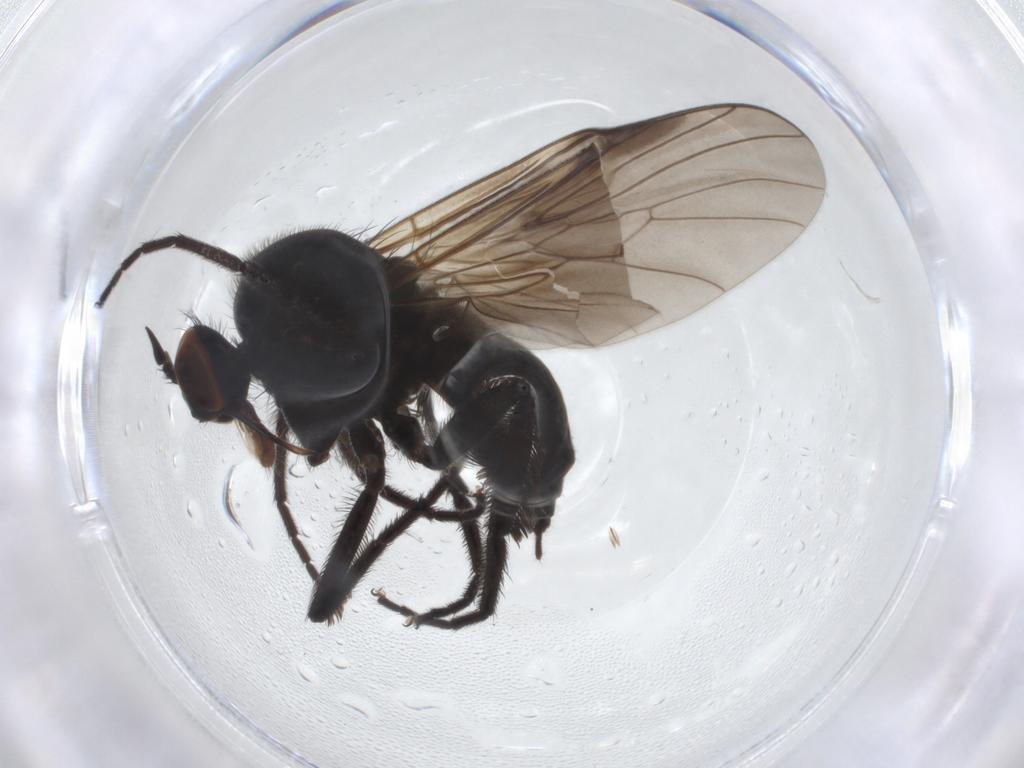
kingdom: Animalia
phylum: Arthropoda
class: Insecta
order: Diptera
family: Empididae
